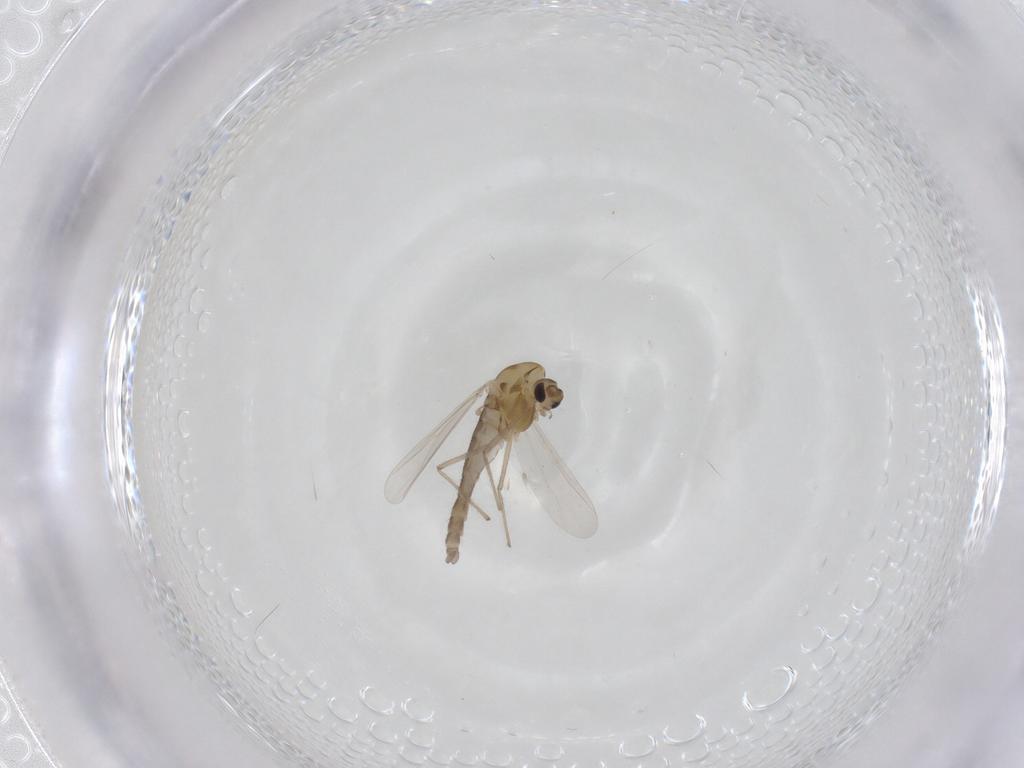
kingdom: Animalia
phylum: Arthropoda
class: Insecta
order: Diptera
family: Chironomidae
